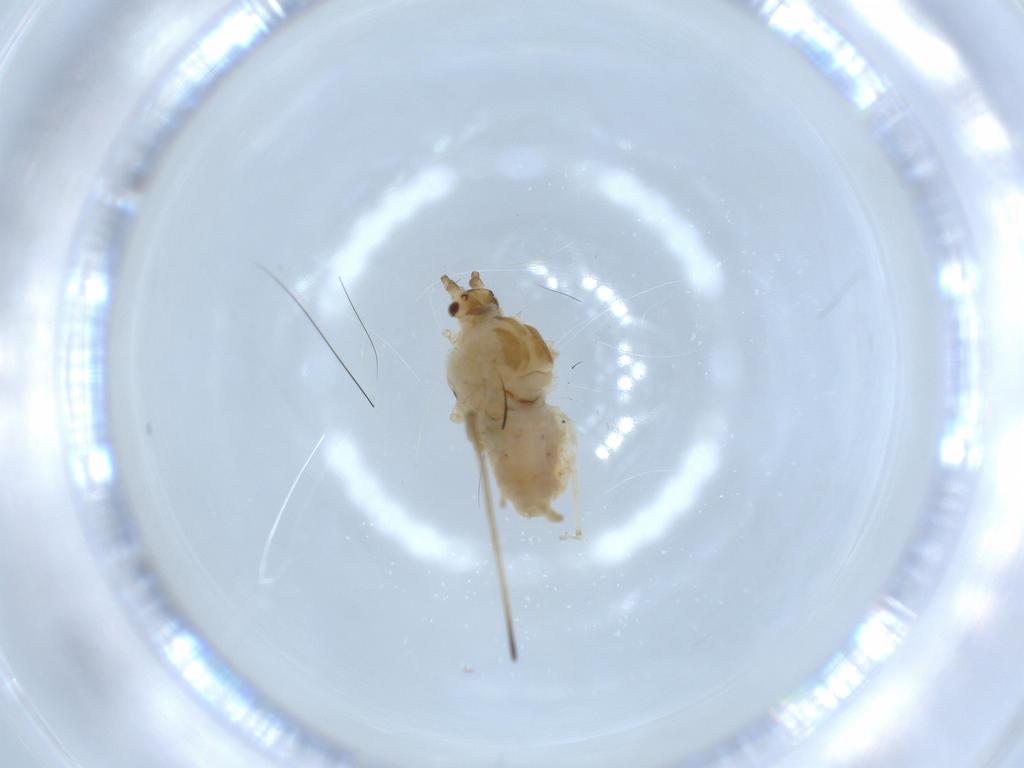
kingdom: Animalia
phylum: Arthropoda
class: Insecta
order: Hemiptera
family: Aphididae
